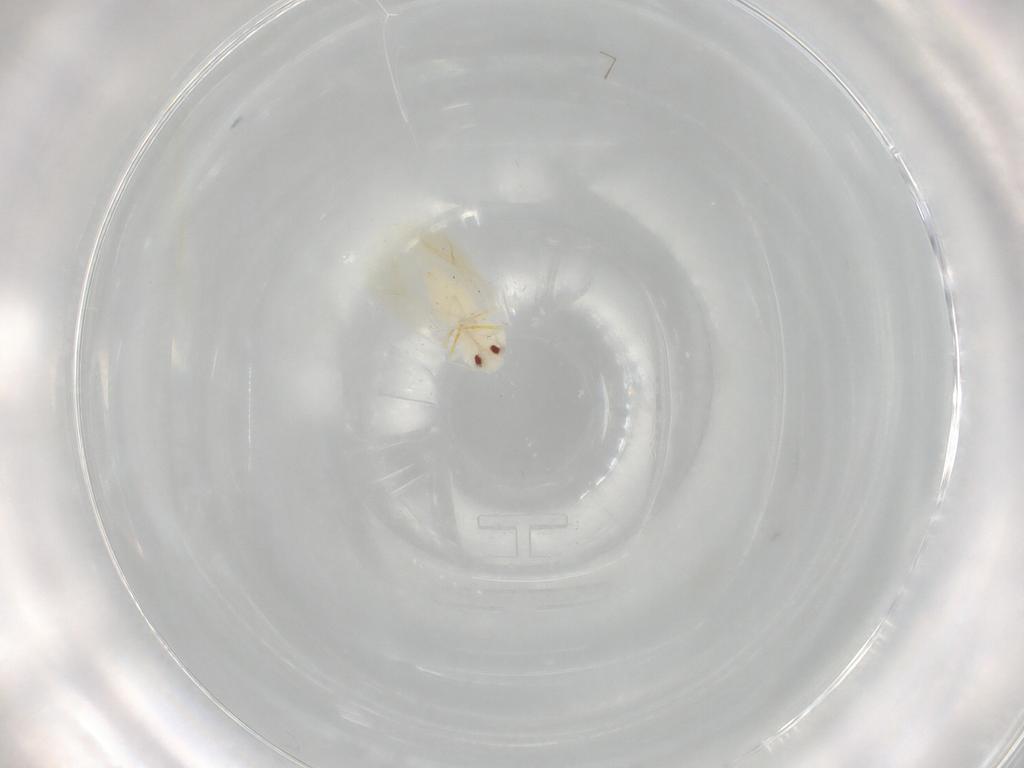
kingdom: Animalia
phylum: Arthropoda
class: Insecta
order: Hemiptera
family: Aleyrodidae
